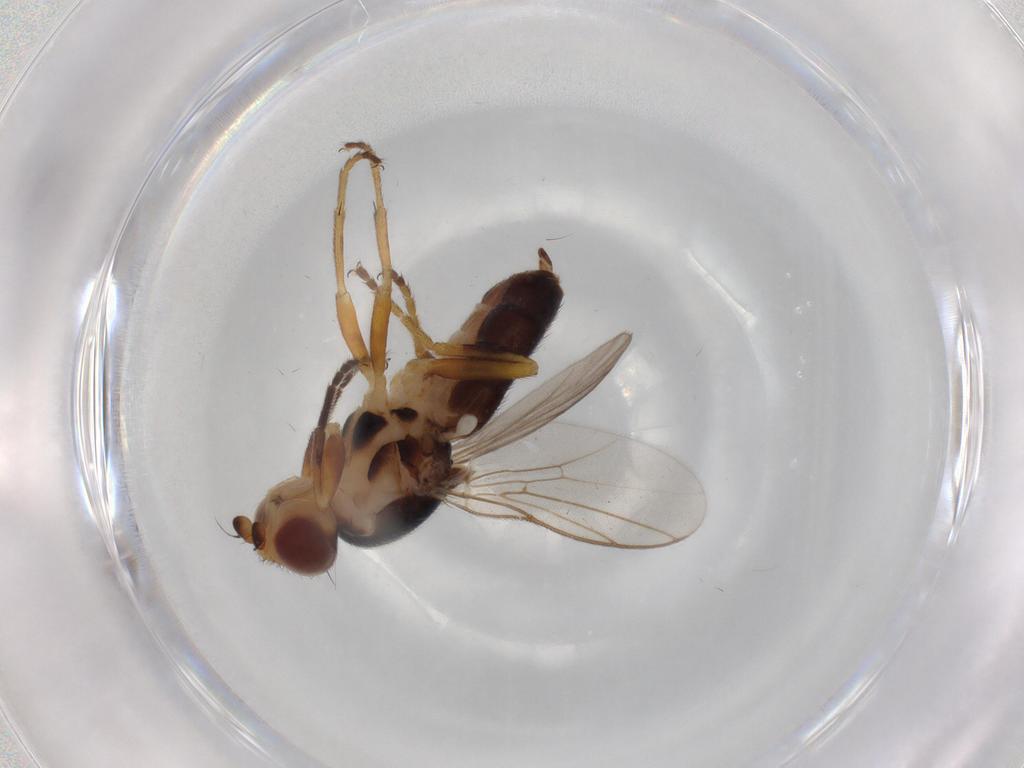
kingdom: Animalia
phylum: Arthropoda
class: Insecta
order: Diptera
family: Chloropidae
